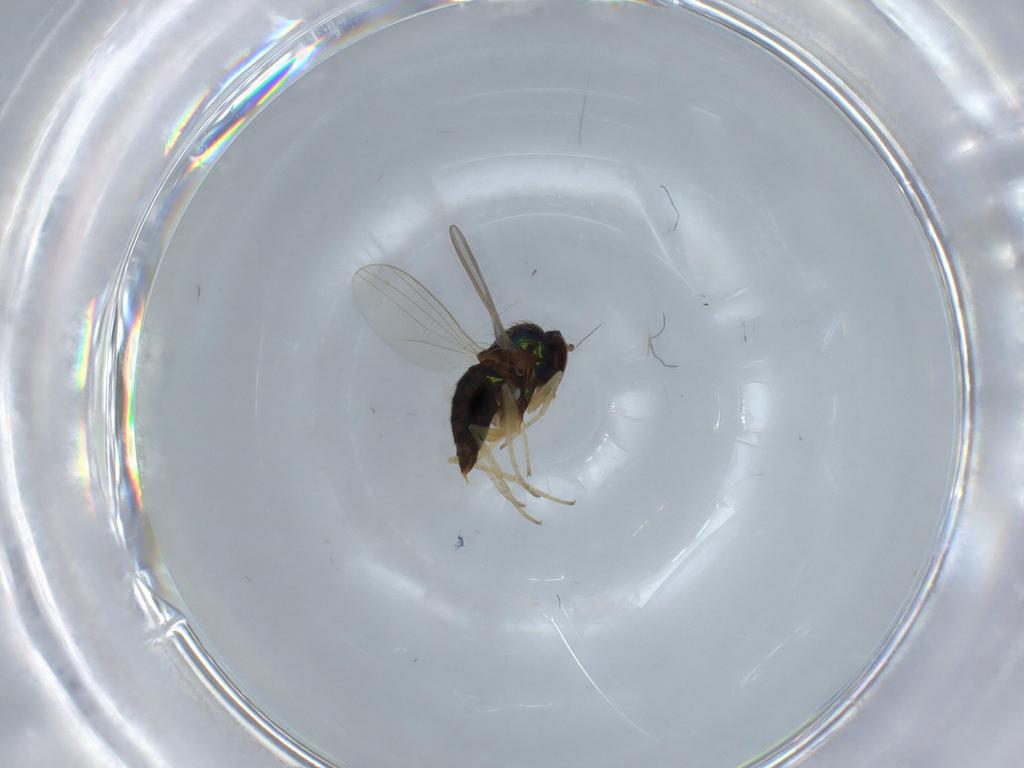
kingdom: Animalia
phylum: Arthropoda
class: Insecta
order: Diptera
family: Dolichopodidae
